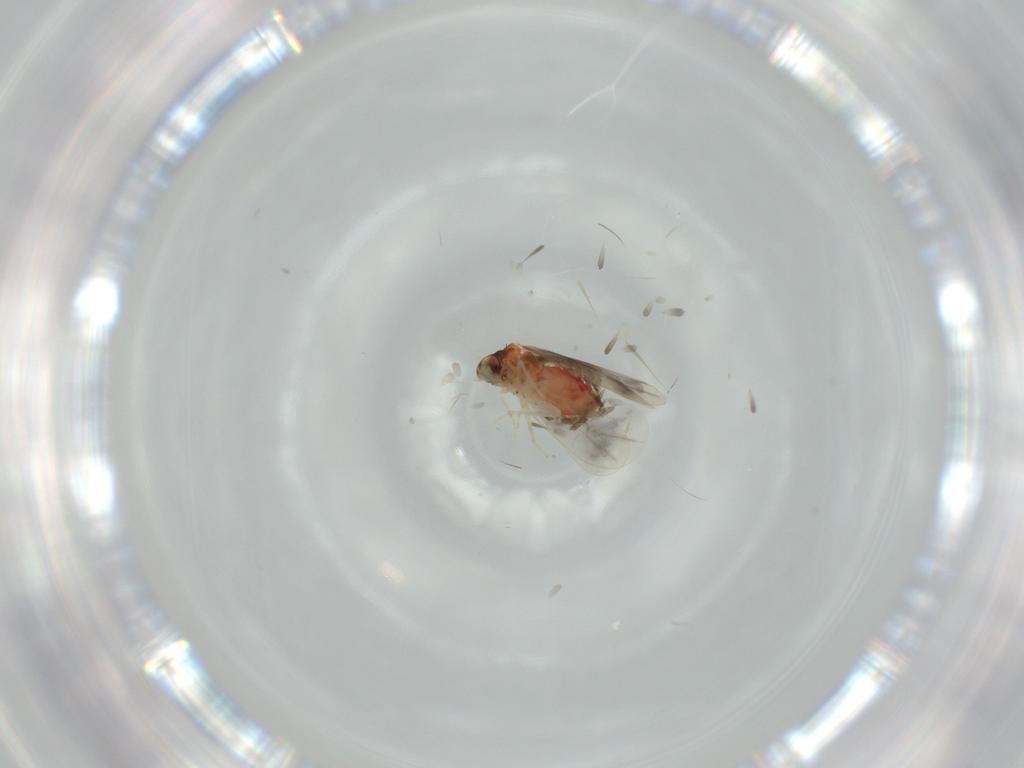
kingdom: Animalia
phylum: Arthropoda
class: Insecta
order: Hemiptera
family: Aleyrodidae
